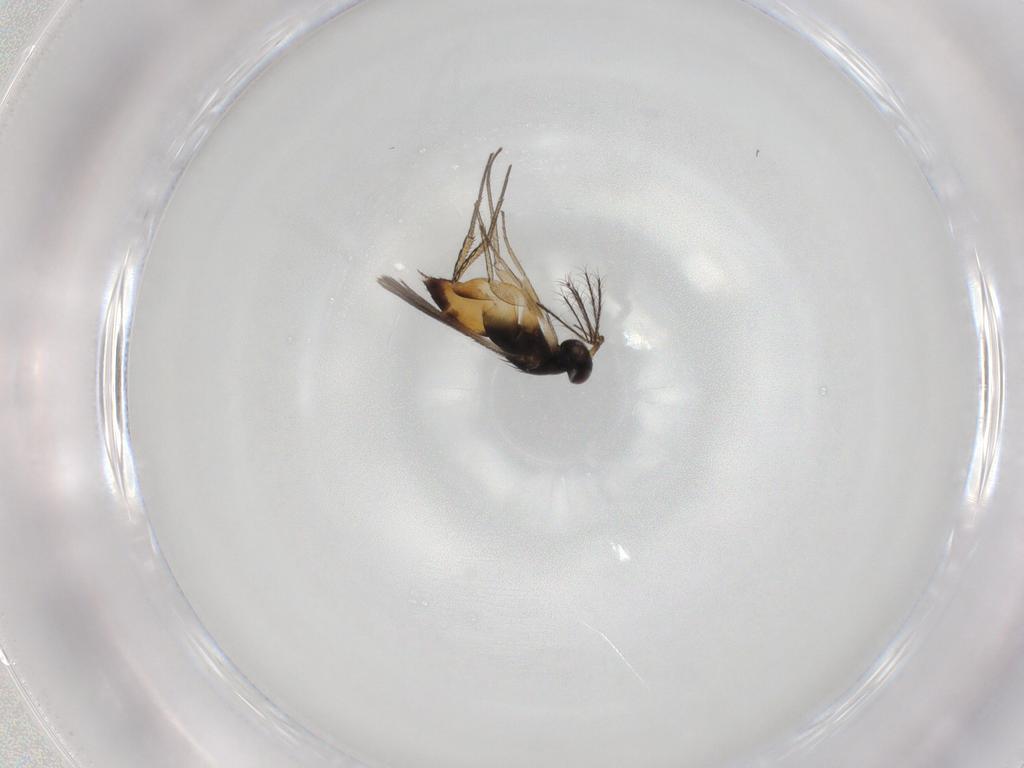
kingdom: Animalia
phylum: Arthropoda
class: Insecta
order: Hymenoptera
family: Eulophidae
